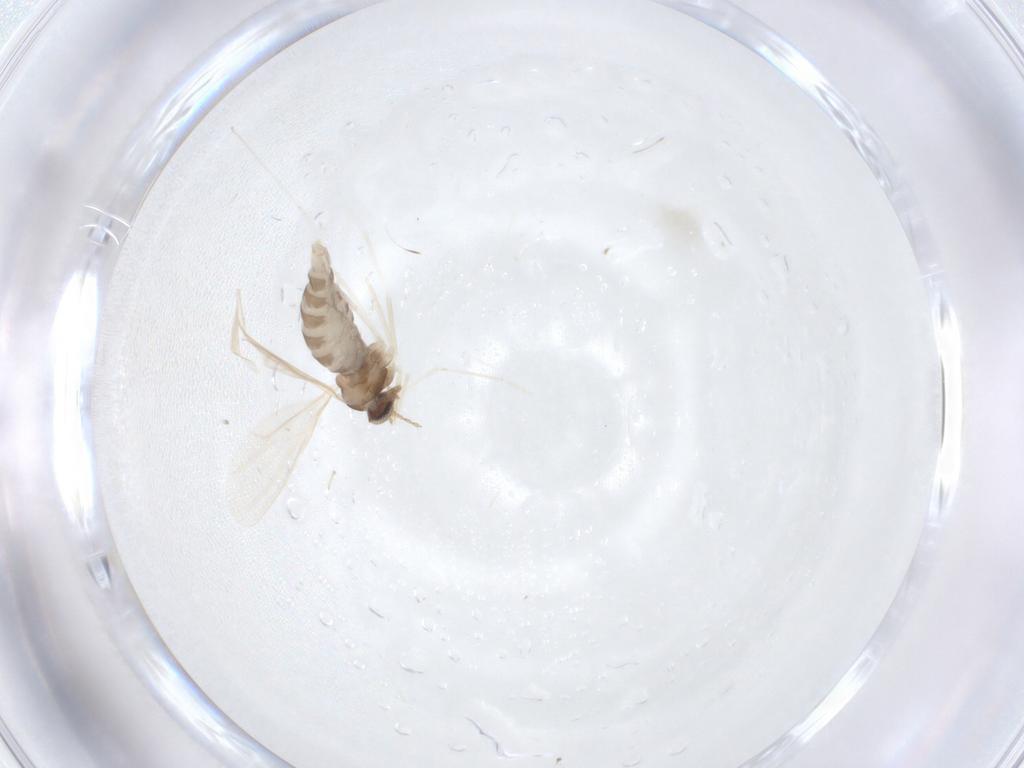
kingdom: Animalia
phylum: Arthropoda
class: Insecta
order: Diptera
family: Cecidomyiidae
